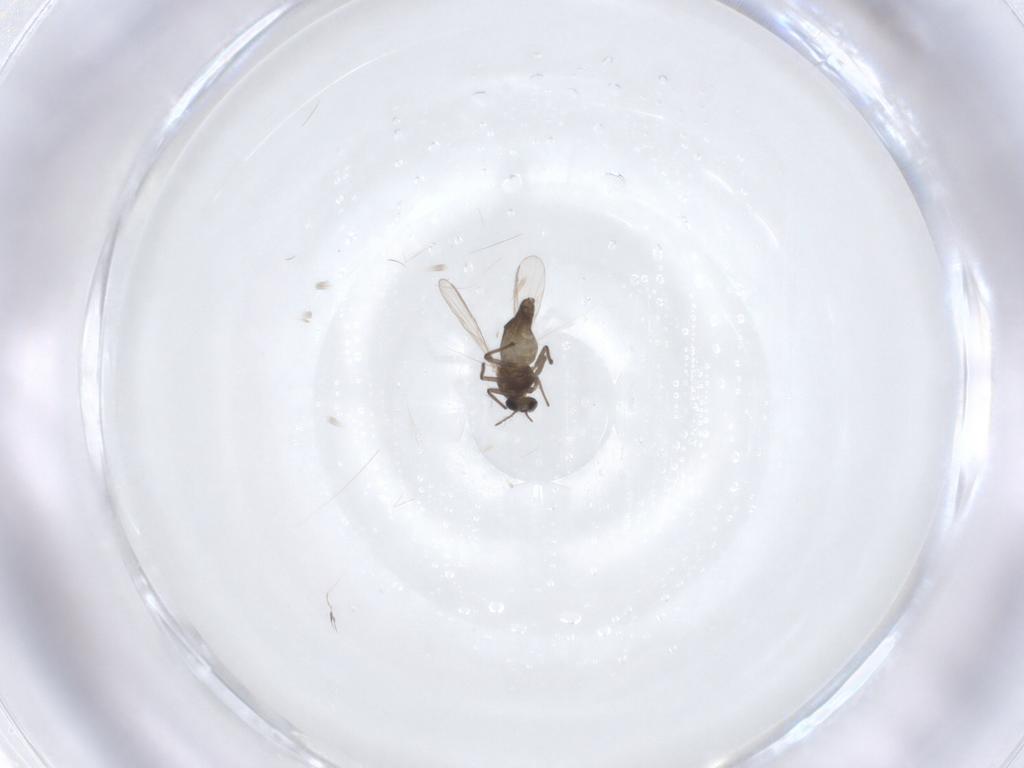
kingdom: Animalia
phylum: Arthropoda
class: Insecta
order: Diptera
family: Chironomidae
